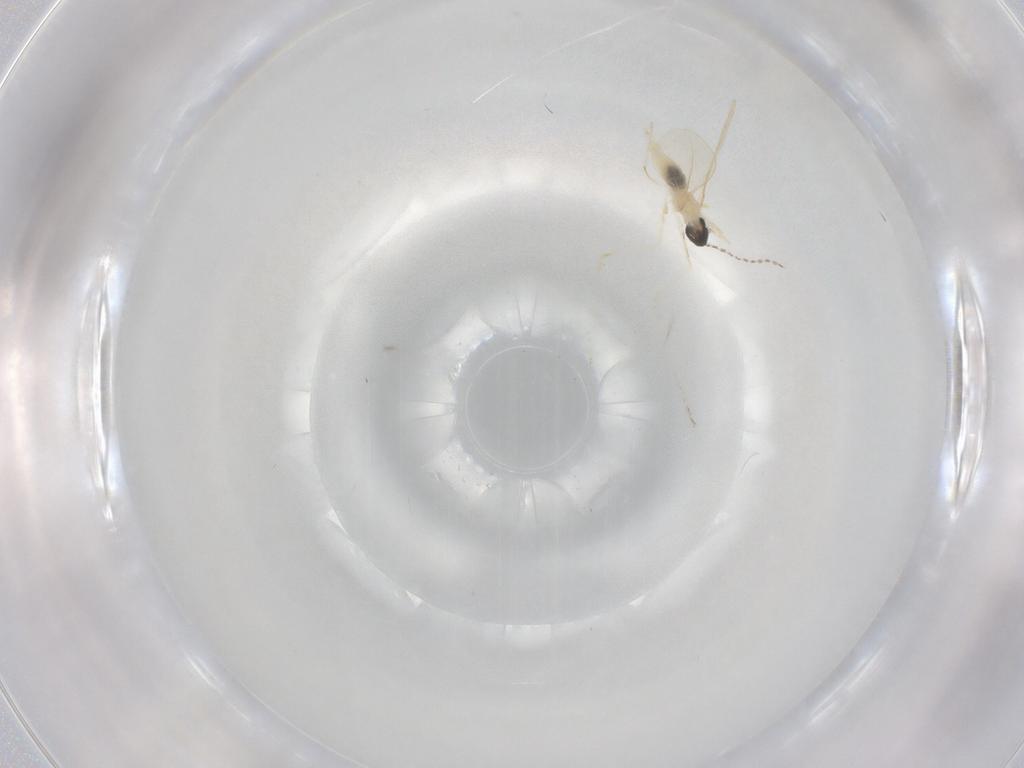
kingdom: Animalia
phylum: Arthropoda
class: Insecta
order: Diptera
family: Cecidomyiidae
